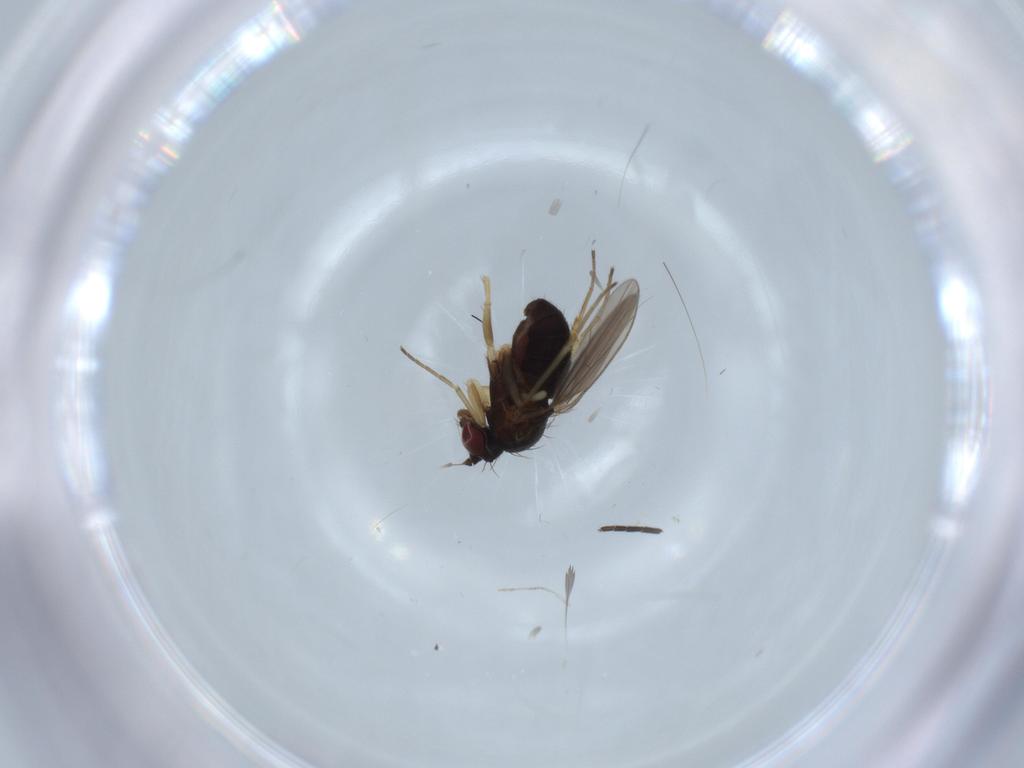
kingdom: Animalia
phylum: Arthropoda
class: Insecta
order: Diptera
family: Dolichopodidae
